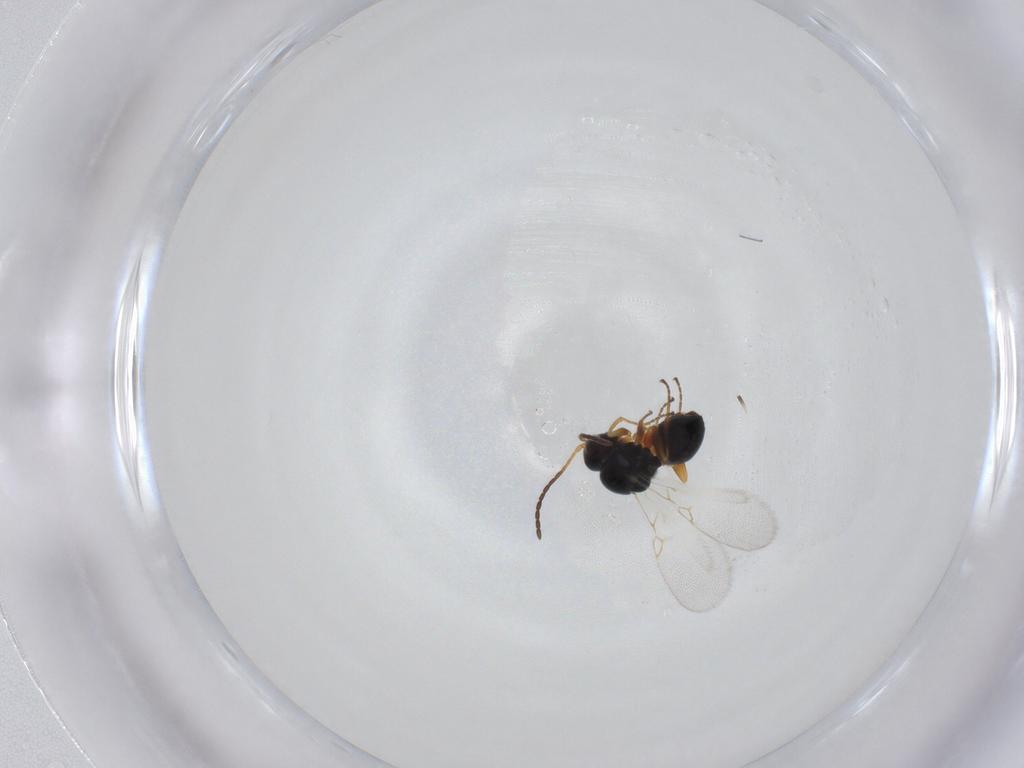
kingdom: Animalia
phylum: Arthropoda
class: Insecta
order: Hymenoptera
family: Figitidae
